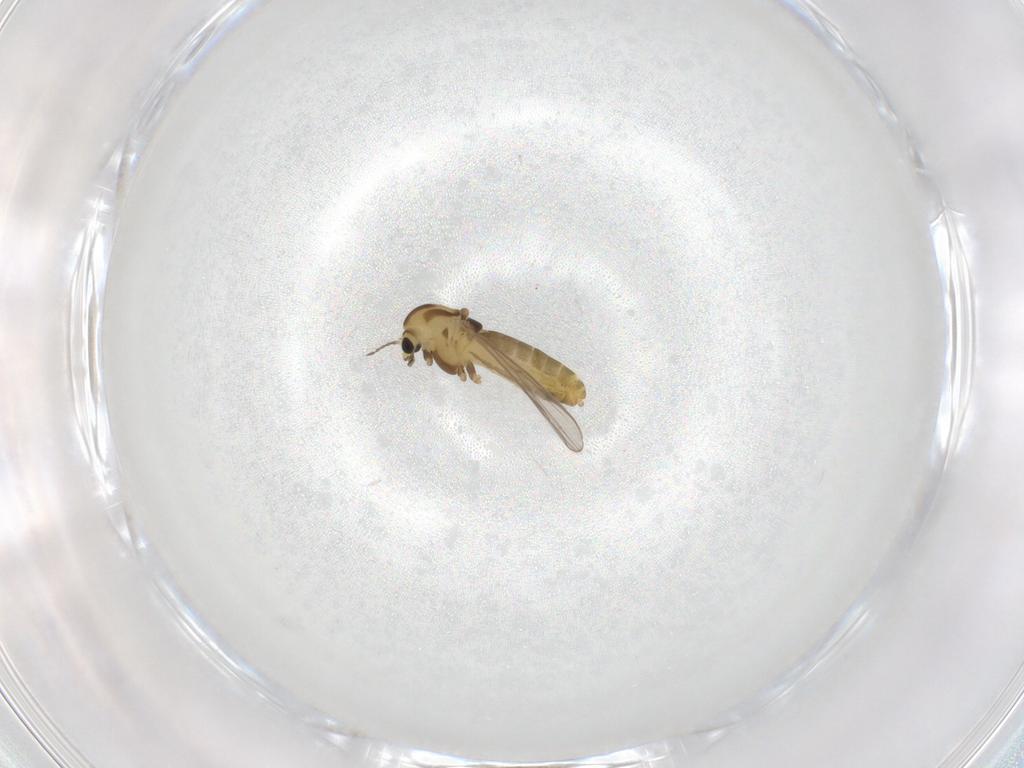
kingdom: Animalia
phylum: Arthropoda
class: Insecta
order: Diptera
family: Chironomidae
